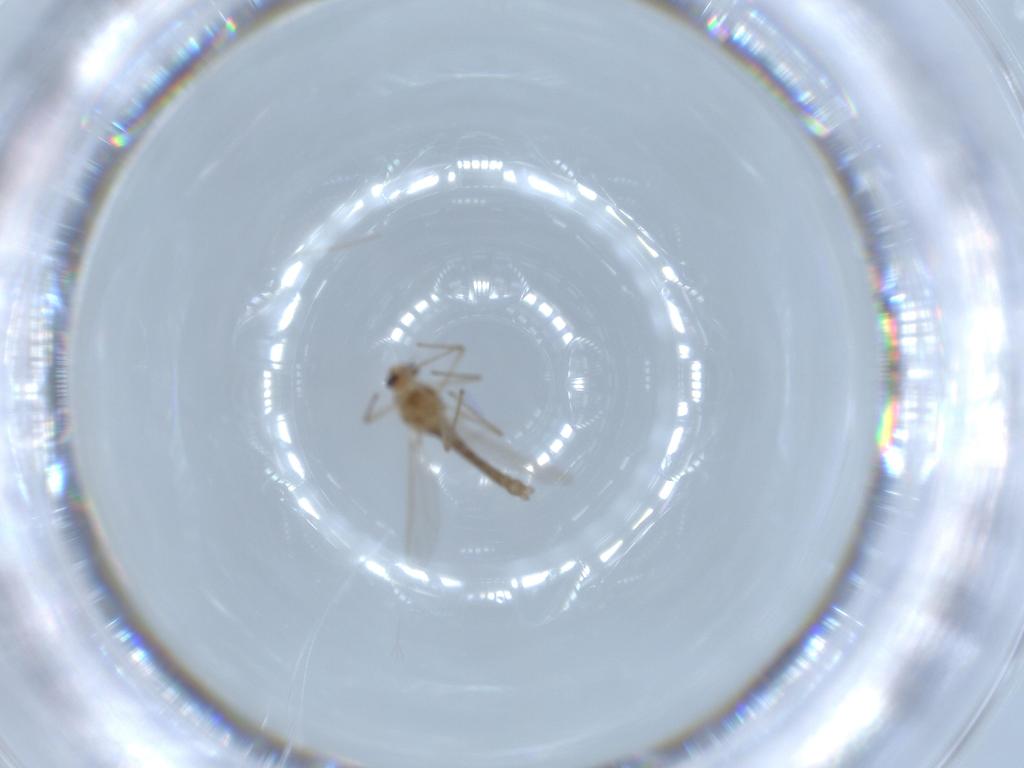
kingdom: Animalia
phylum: Arthropoda
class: Insecta
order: Diptera
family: Chironomidae
